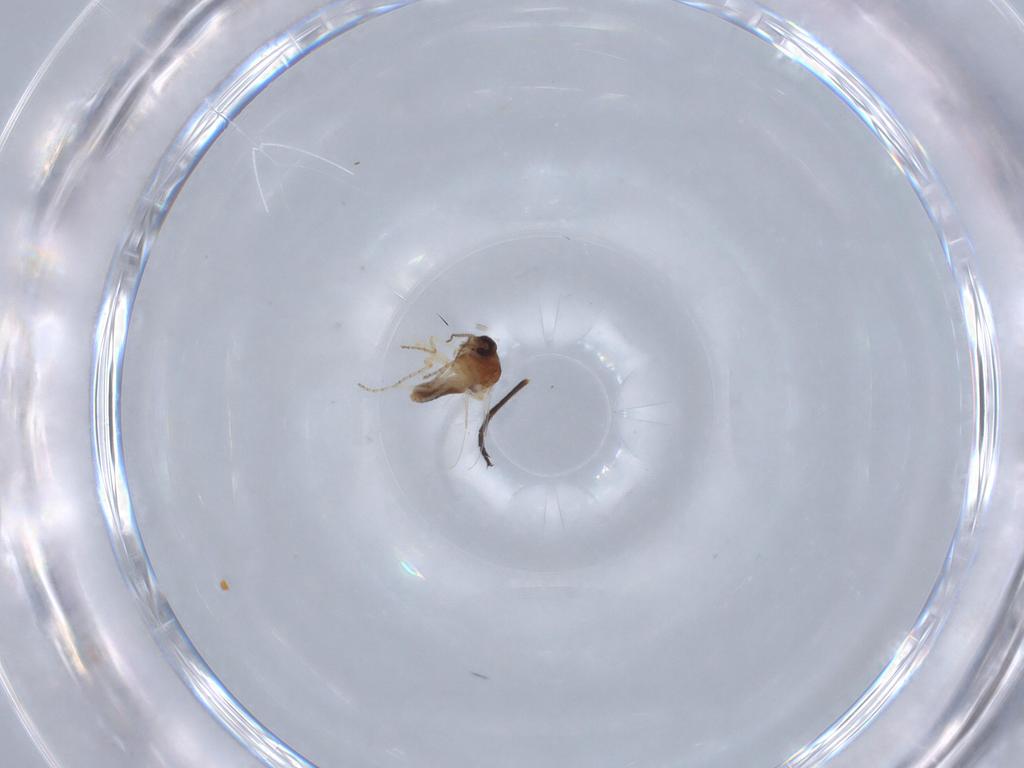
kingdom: Animalia
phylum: Arthropoda
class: Insecta
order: Diptera
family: Dolichopodidae
